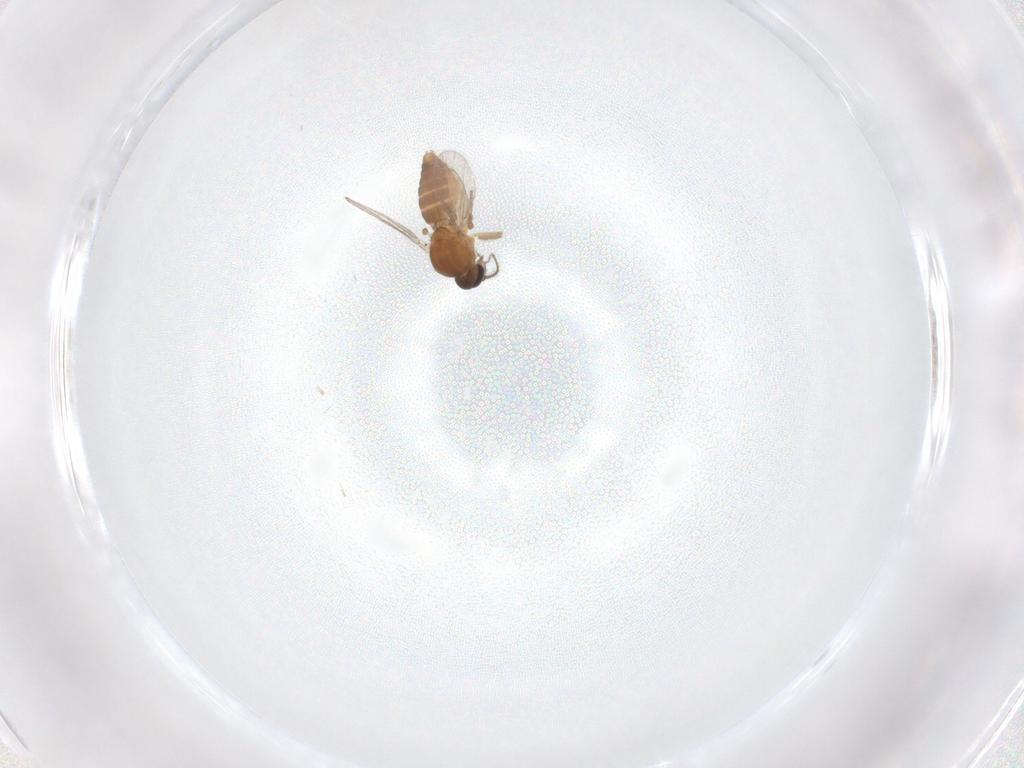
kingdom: Animalia
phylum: Arthropoda
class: Insecta
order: Diptera
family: Ceratopogonidae
